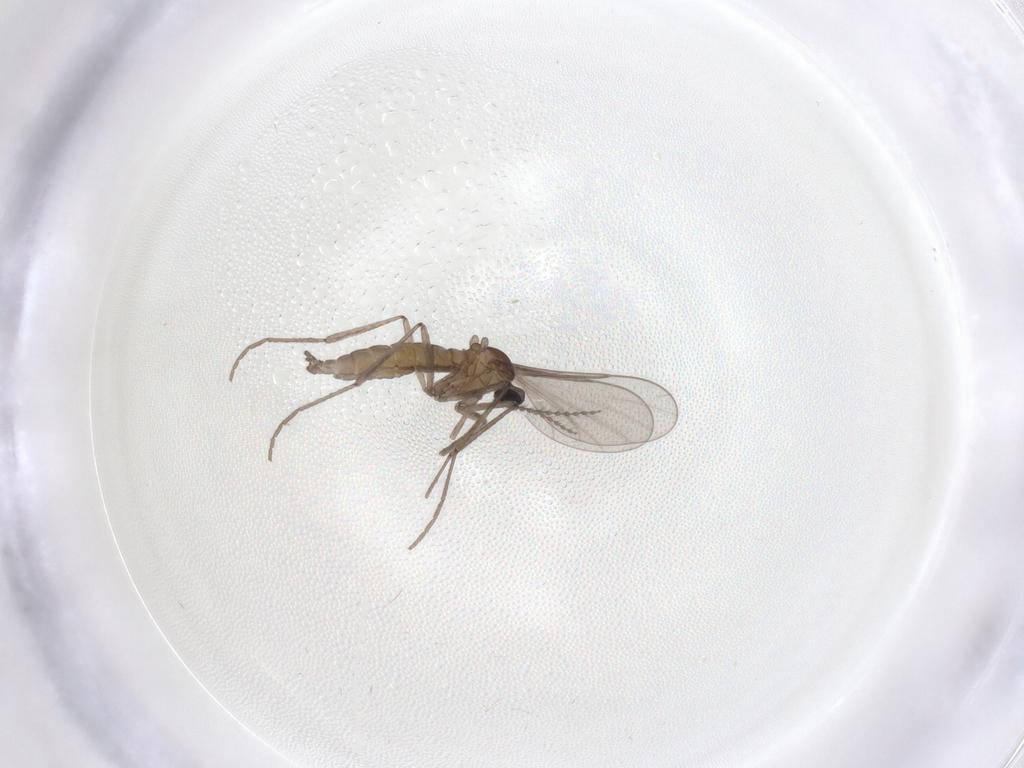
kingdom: Animalia
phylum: Arthropoda
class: Insecta
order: Diptera
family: Cecidomyiidae
